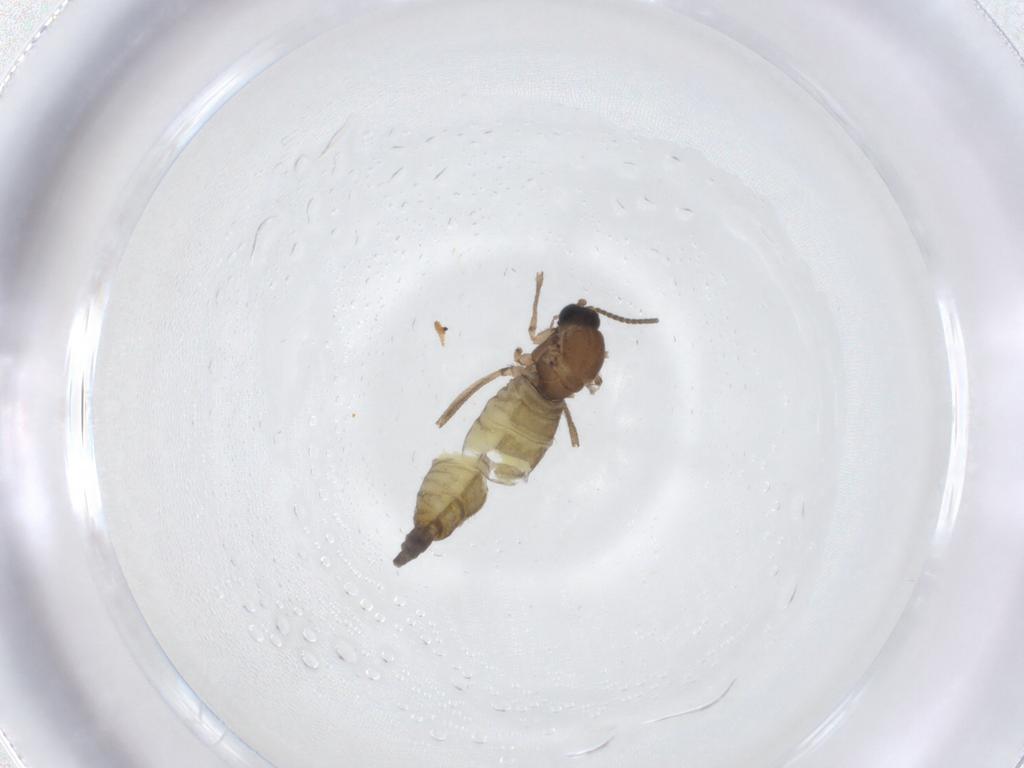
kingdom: Animalia
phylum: Arthropoda
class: Insecta
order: Diptera
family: Sciaridae
